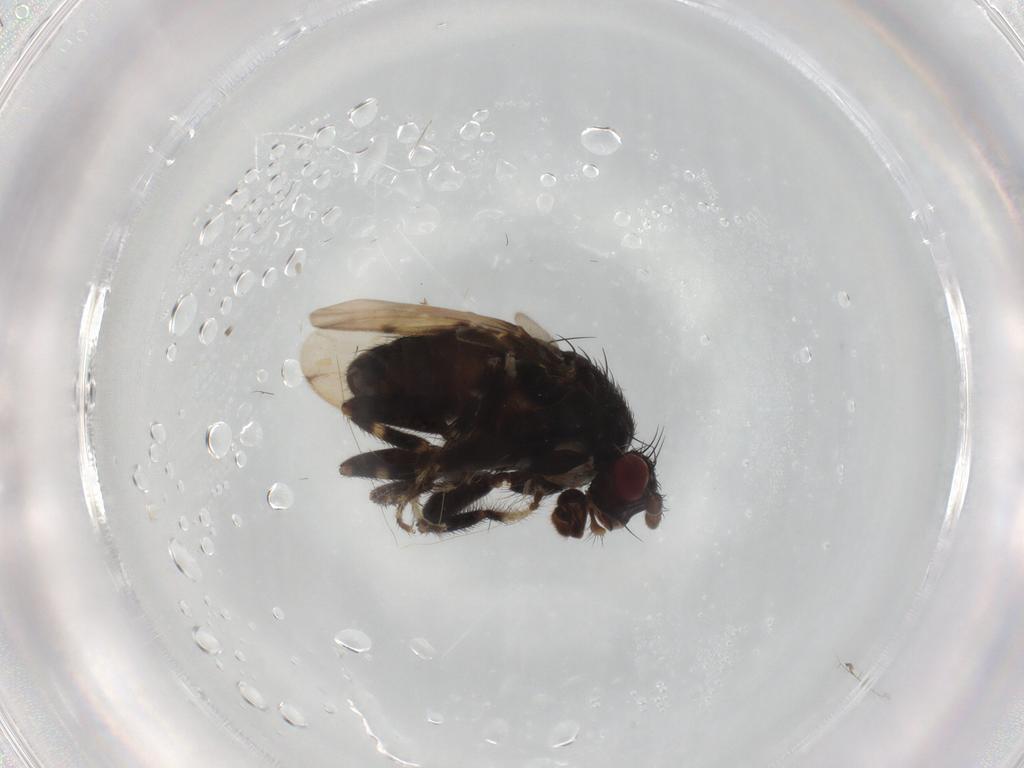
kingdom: Animalia
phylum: Arthropoda
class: Insecta
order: Diptera
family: Sphaeroceridae
